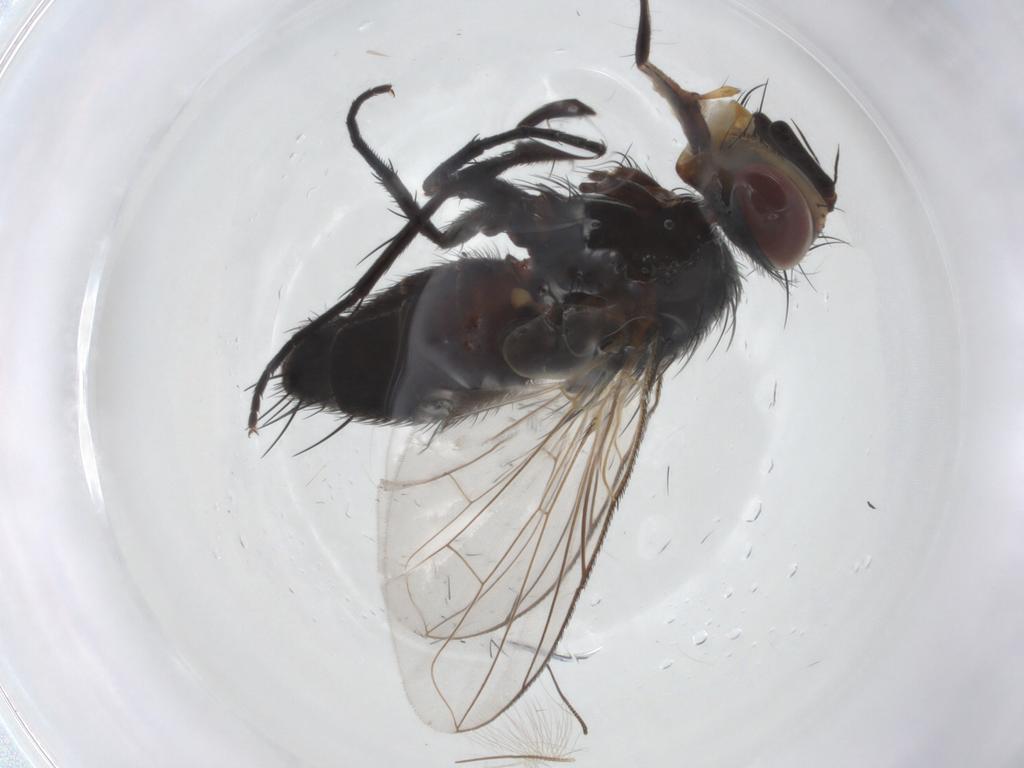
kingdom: Animalia
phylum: Arthropoda
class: Insecta
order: Diptera
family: Tachinidae
